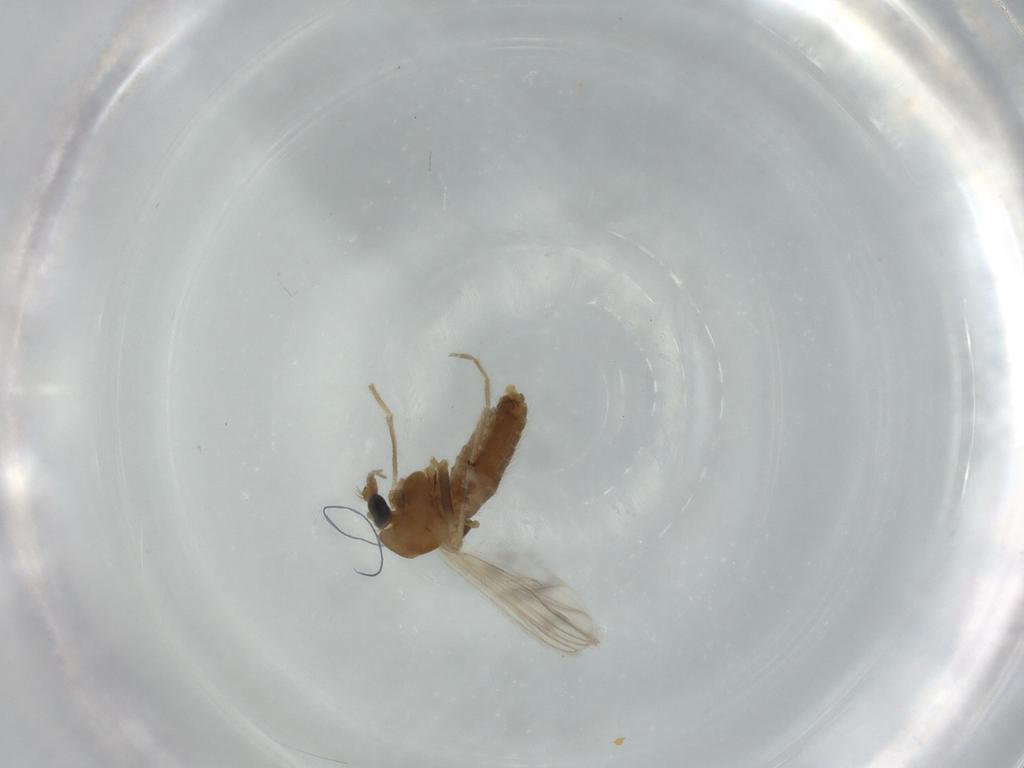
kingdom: Animalia
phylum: Arthropoda
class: Insecta
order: Diptera
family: Chironomidae
